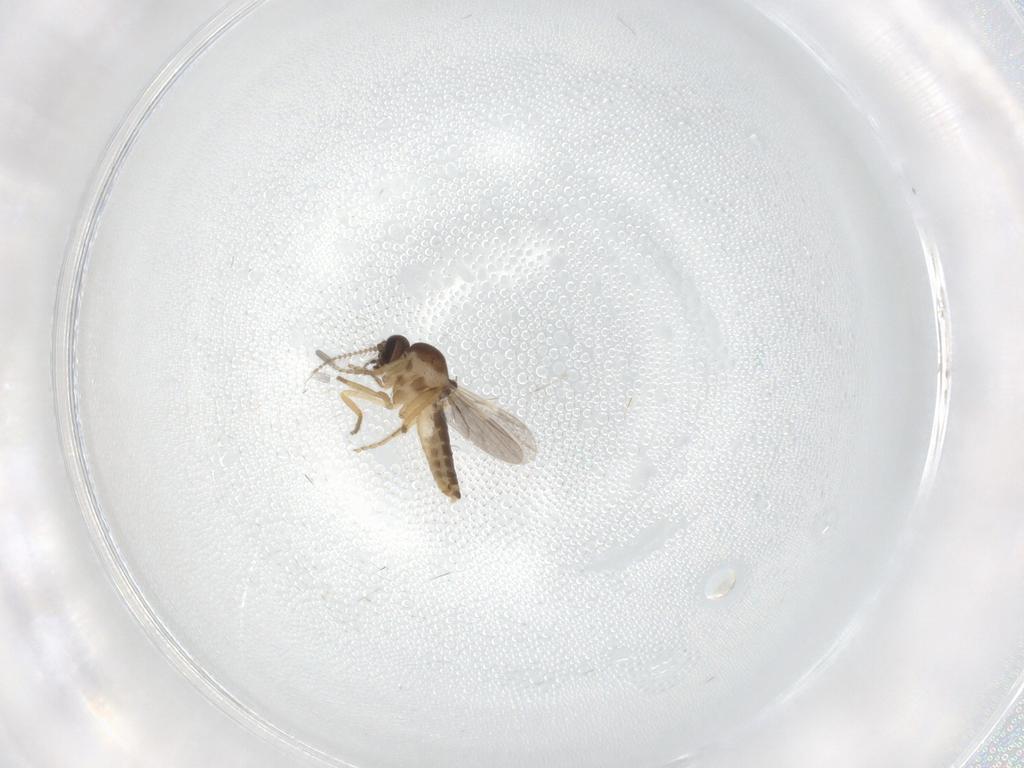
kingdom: Animalia
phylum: Arthropoda
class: Insecta
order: Diptera
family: Ceratopogonidae
